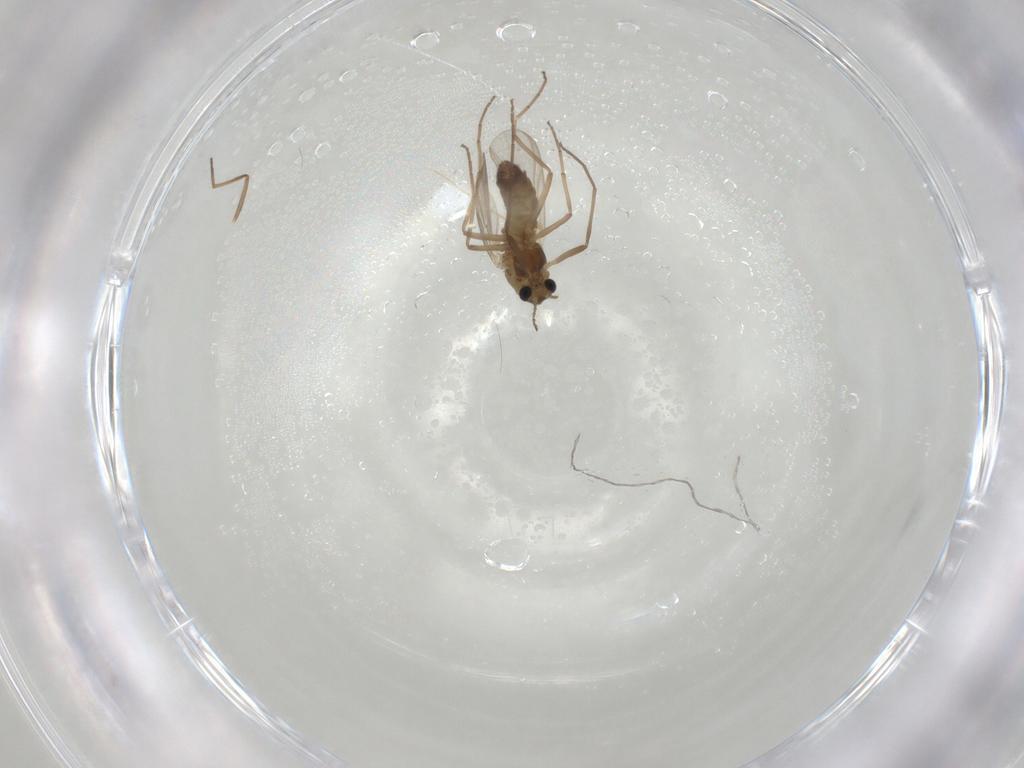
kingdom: Animalia
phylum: Arthropoda
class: Insecta
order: Diptera
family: Chironomidae
